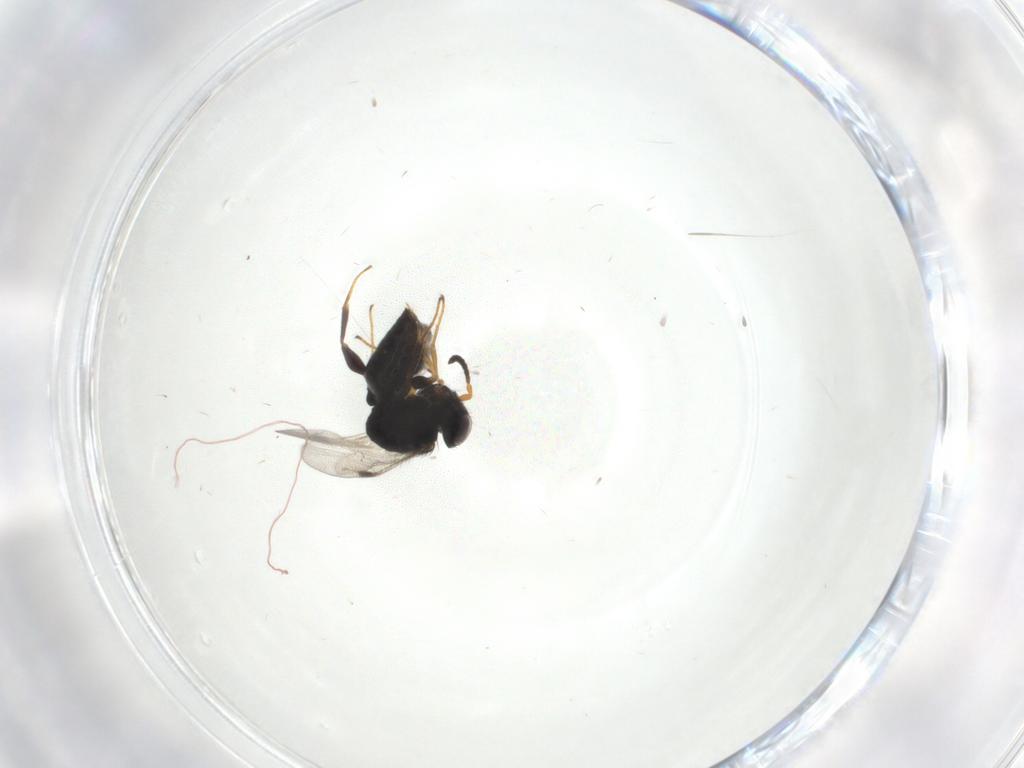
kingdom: Animalia
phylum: Arthropoda
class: Insecta
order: Hymenoptera
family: Dryinidae
